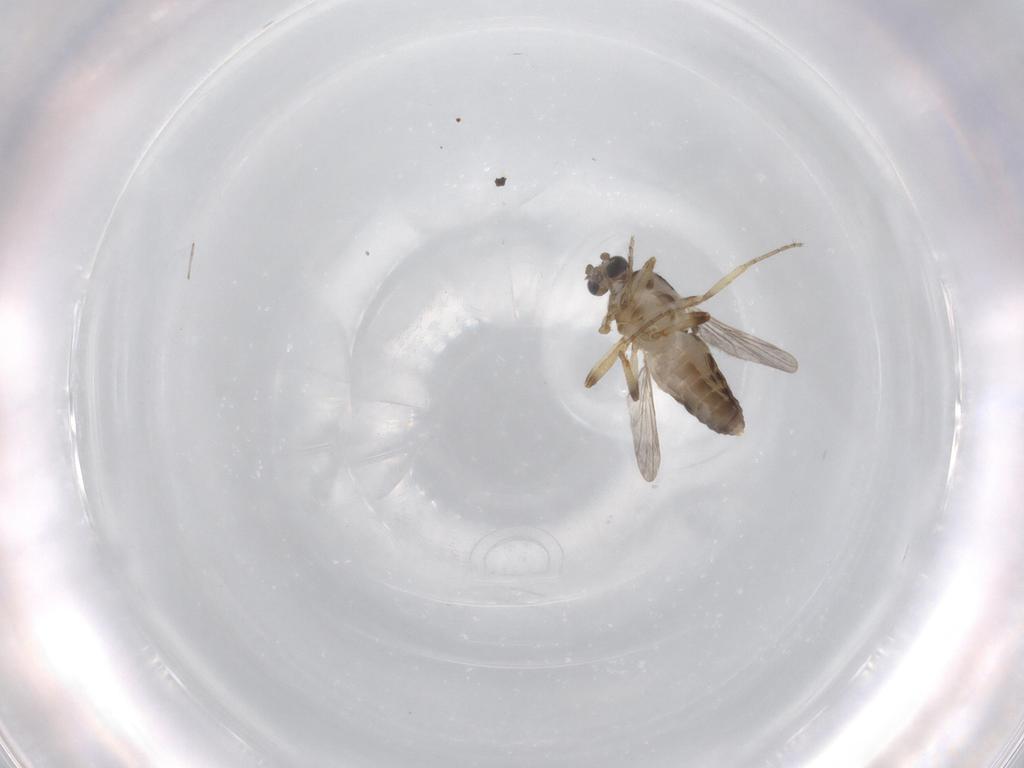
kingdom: Animalia
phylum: Arthropoda
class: Insecta
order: Diptera
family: Ceratopogonidae
